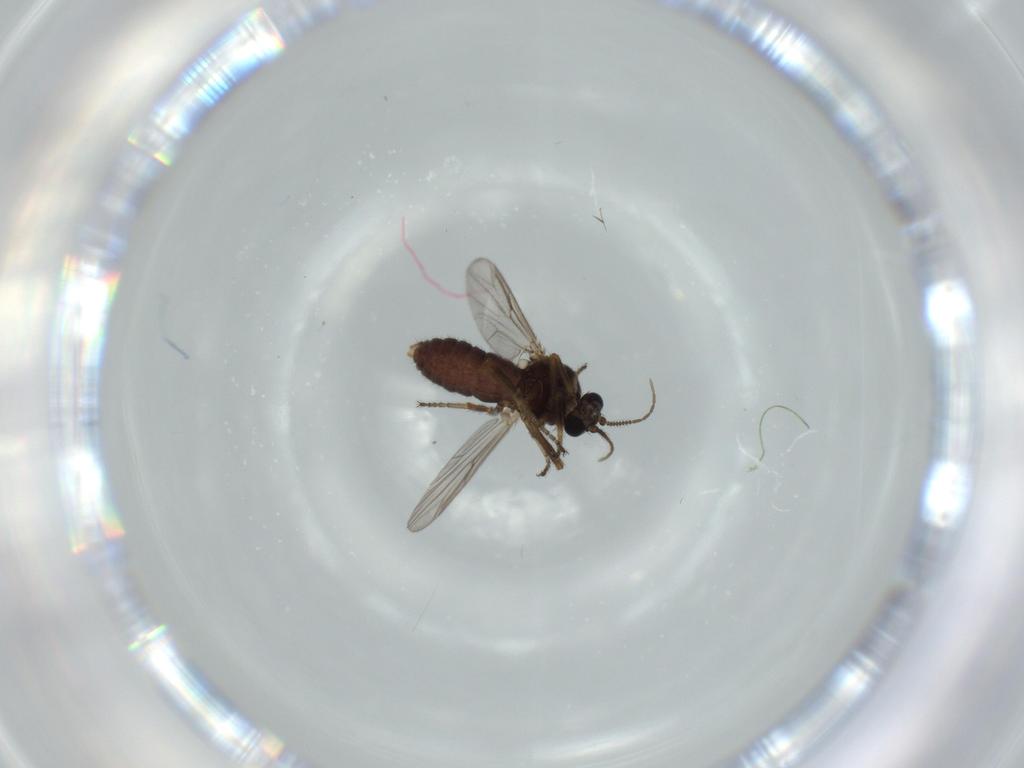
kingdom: Animalia
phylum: Arthropoda
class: Insecta
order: Diptera
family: Ceratopogonidae
